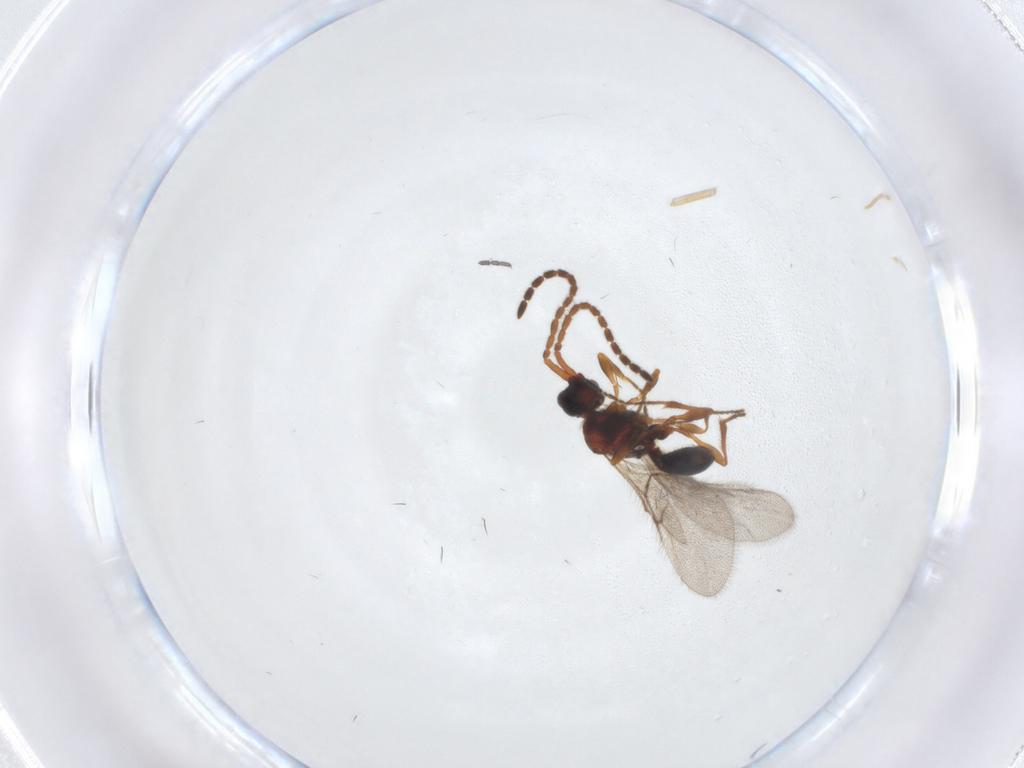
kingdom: Animalia
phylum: Arthropoda
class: Insecta
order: Hymenoptera
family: Diapriidae
